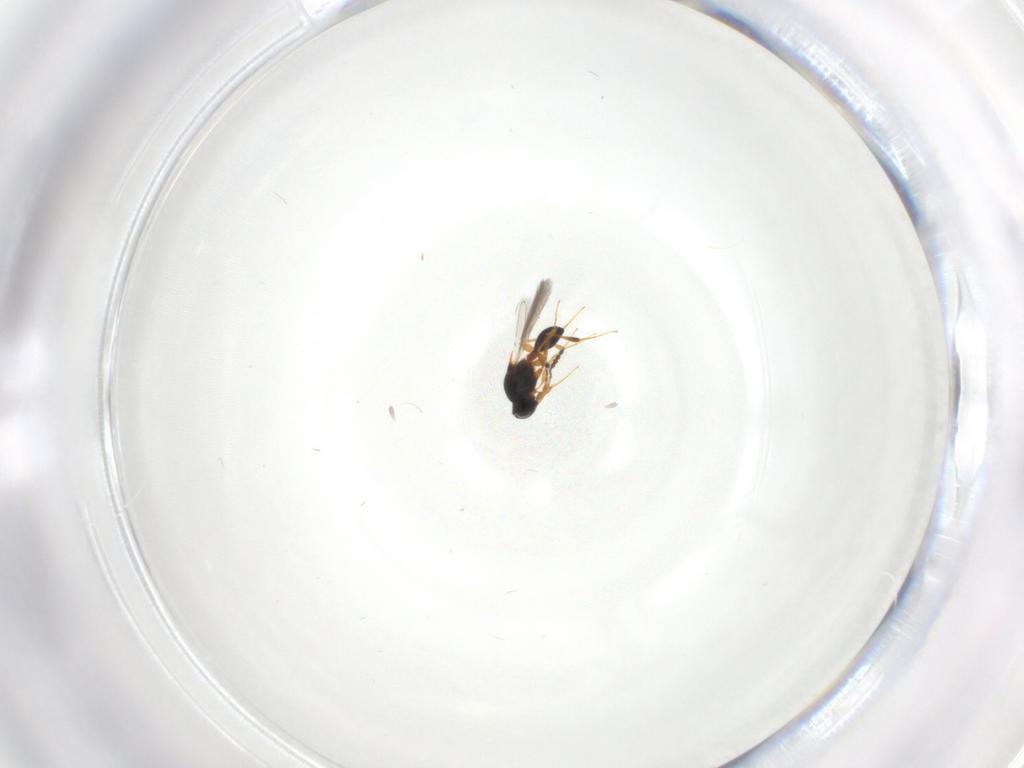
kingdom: Animalia
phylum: Arthropoda
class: Insecta
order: Hymenoptera
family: Platygastridae
